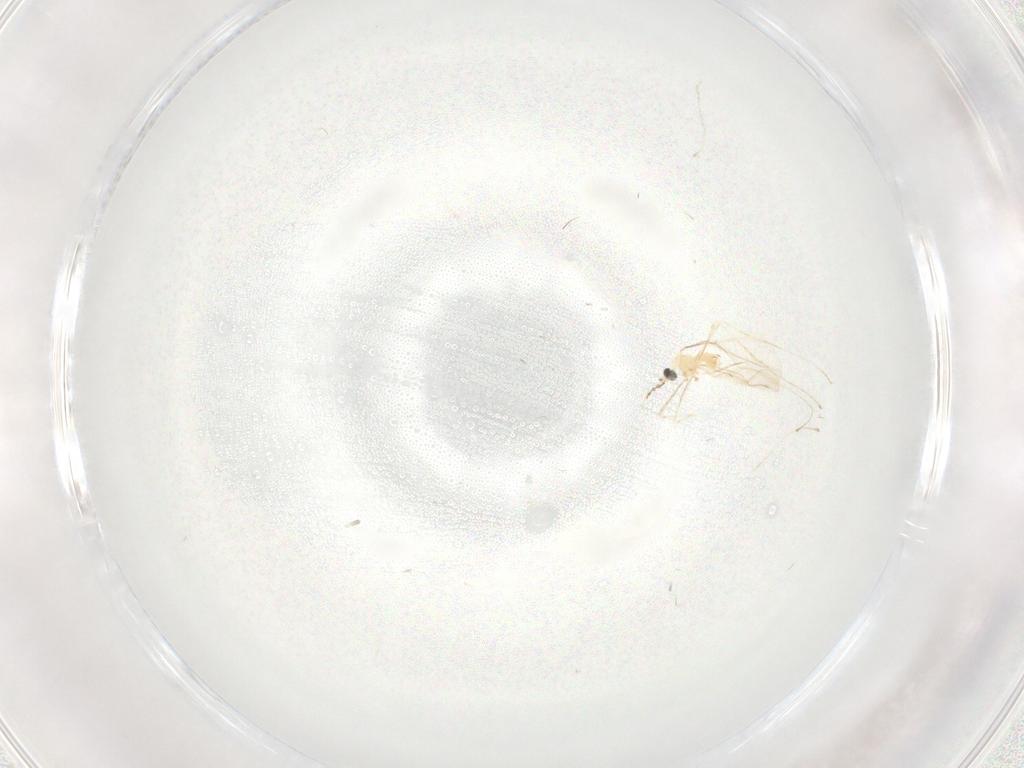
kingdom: Animalia
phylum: Arthropoda
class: Insecta
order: Diptera
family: Cecidomyiidae
